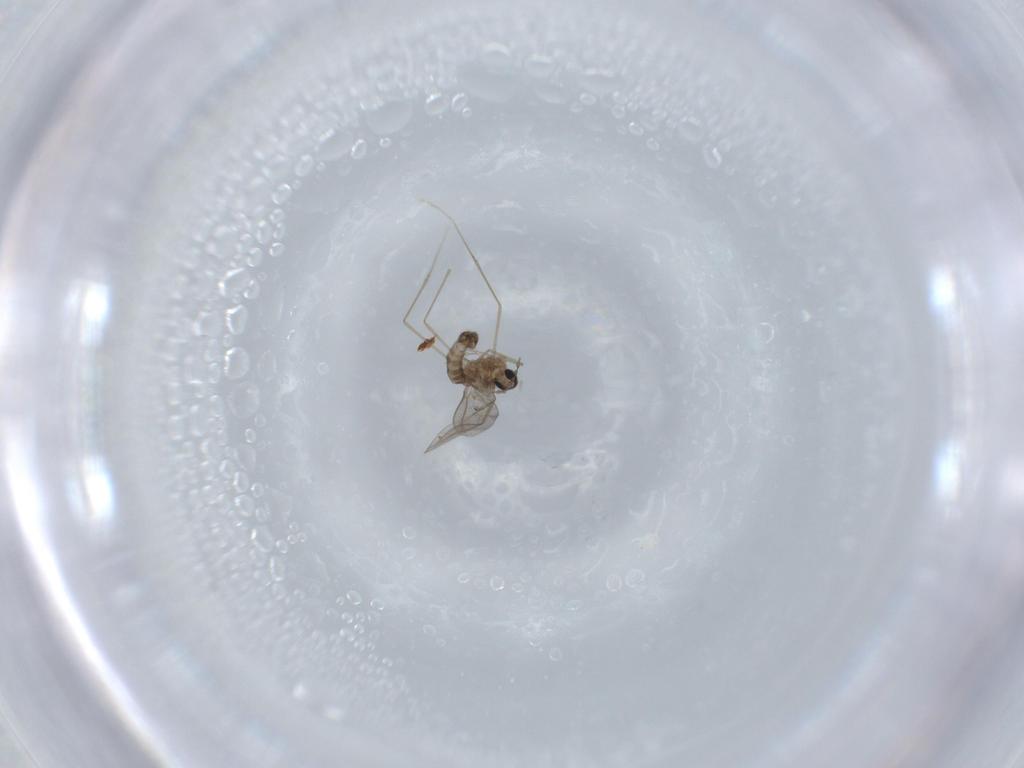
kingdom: Animalia
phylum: Arthropoda
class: Insecta
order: Diptera
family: Cecidomyiidae
